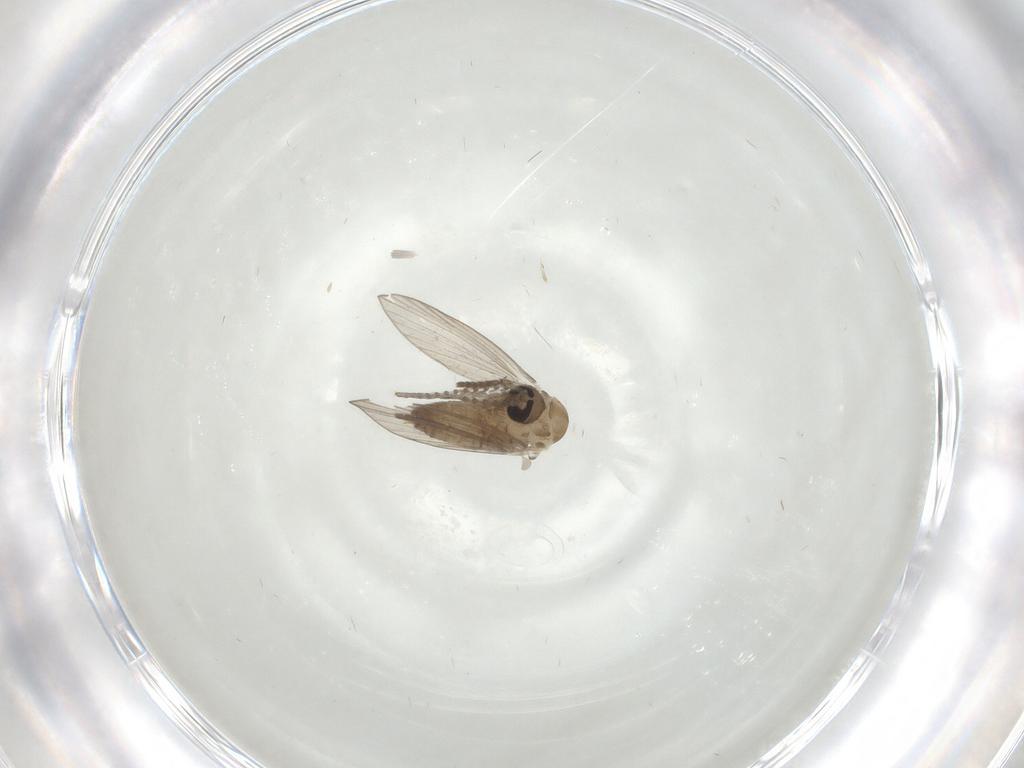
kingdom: Animalia
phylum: Arthropoda
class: Insecta
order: Diptera
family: Psychodidae
